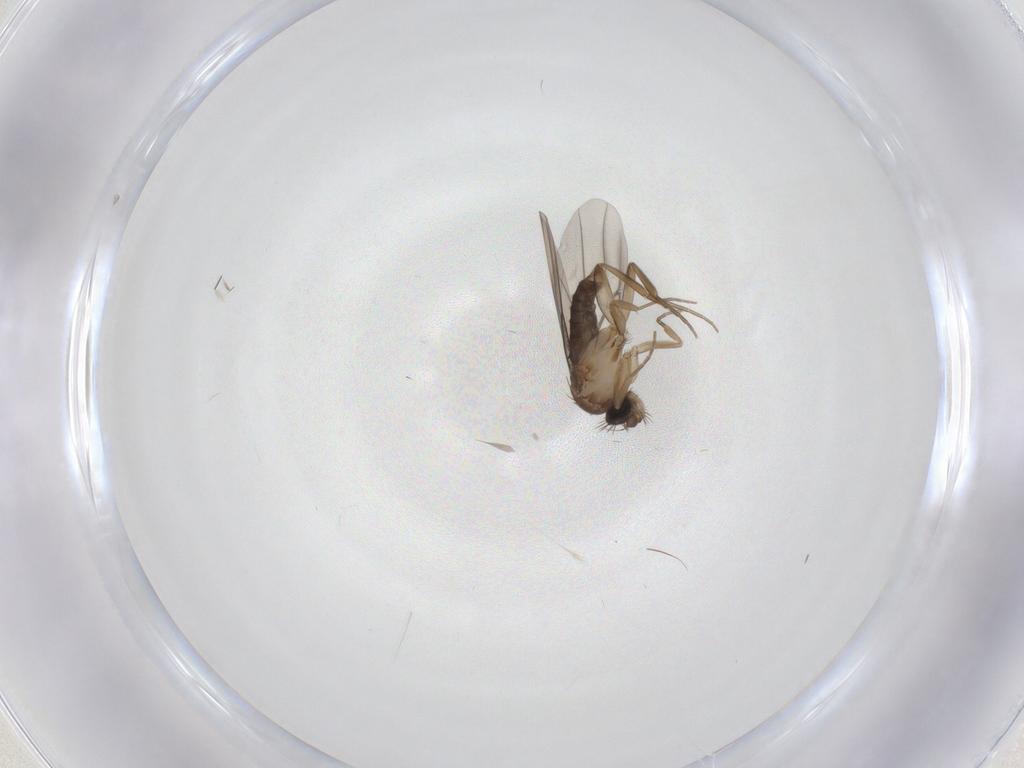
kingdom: Animalia
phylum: Arthropoda
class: Insecta
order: Diptera
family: Phoridae
